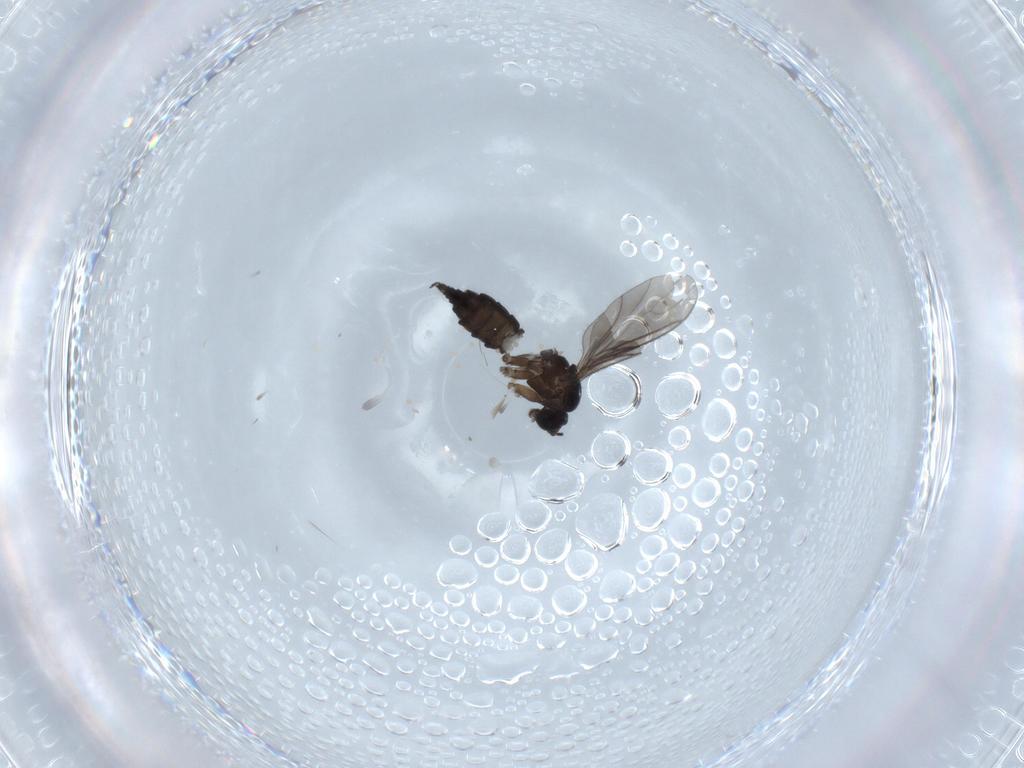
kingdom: Animalia
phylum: Arthropoda
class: Insecta
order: Diptera
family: Sciaridae
